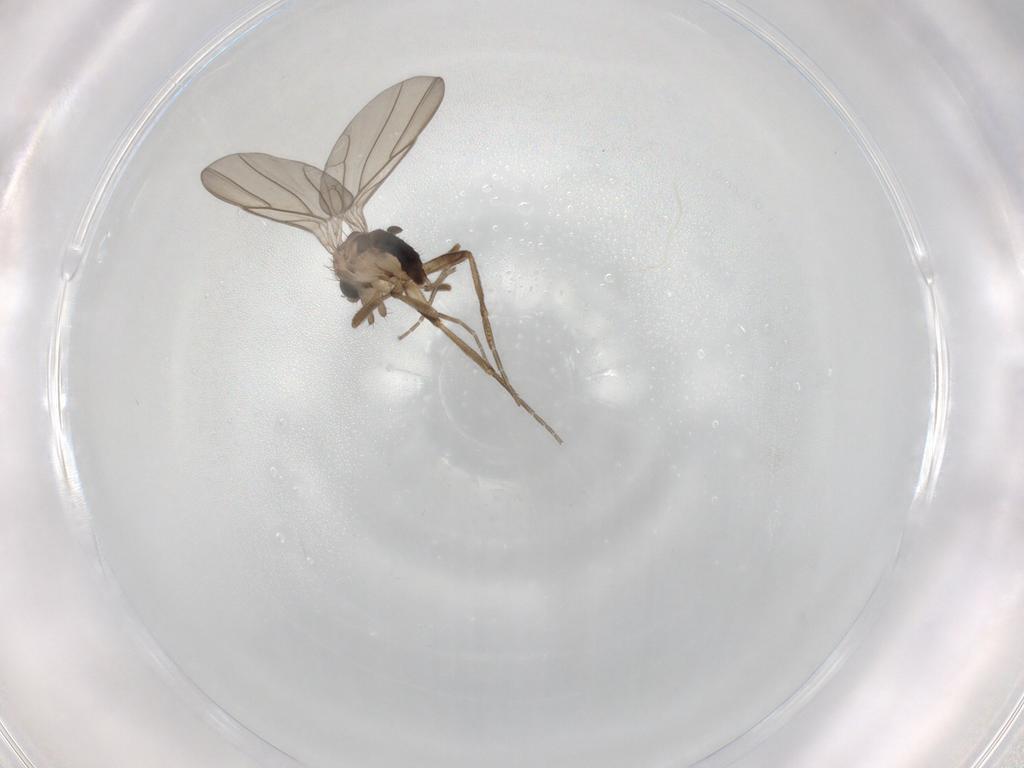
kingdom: Animalia
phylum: Arthropoda
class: Insecta
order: Diptera
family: Phoridae
